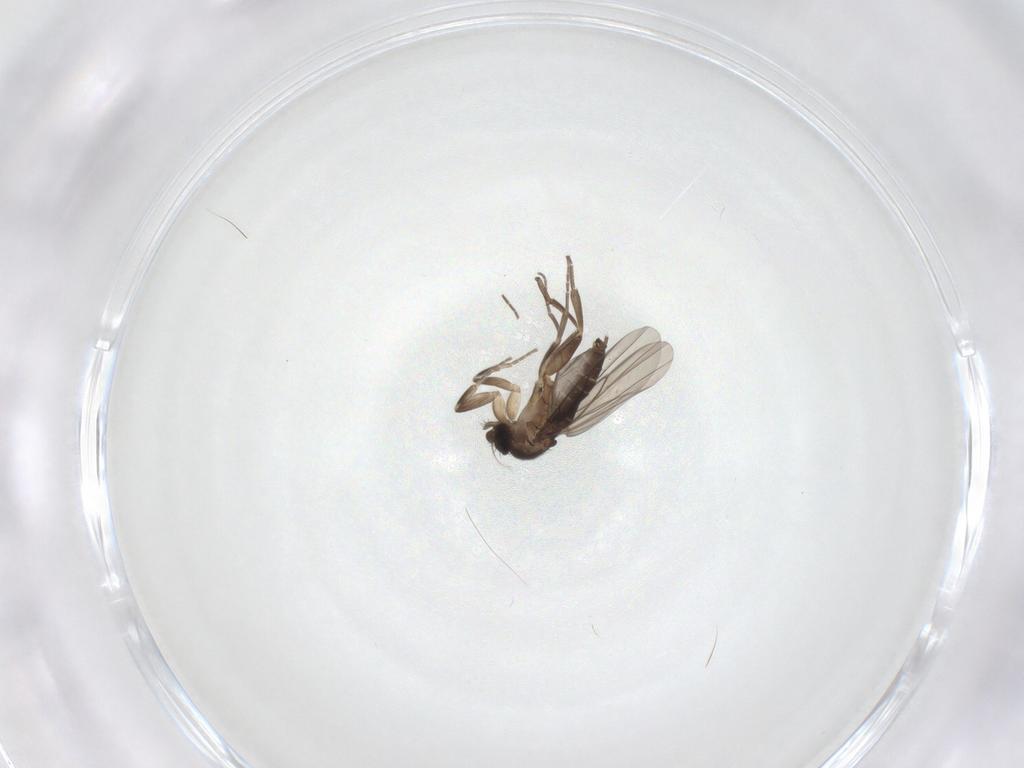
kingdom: Animalia
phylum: Arthropoda
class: Insecta
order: Diptera
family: Phoridae
